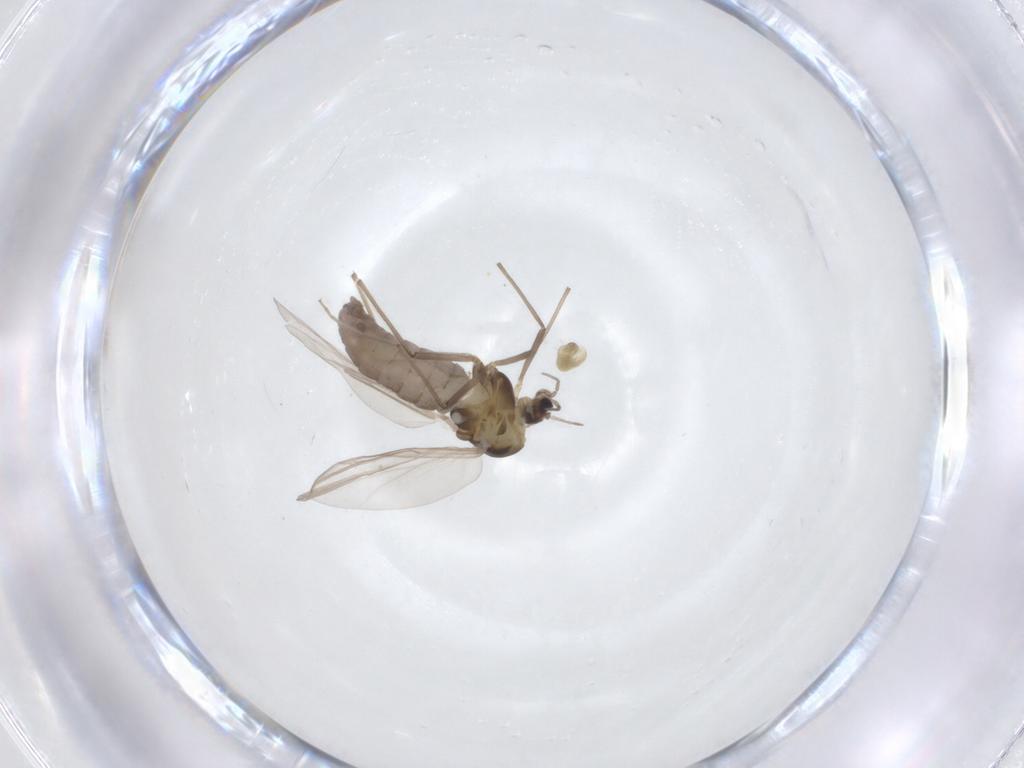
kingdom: Animalia
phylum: Arthropoda
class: Insecta
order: Diptera
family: Chironomidae
